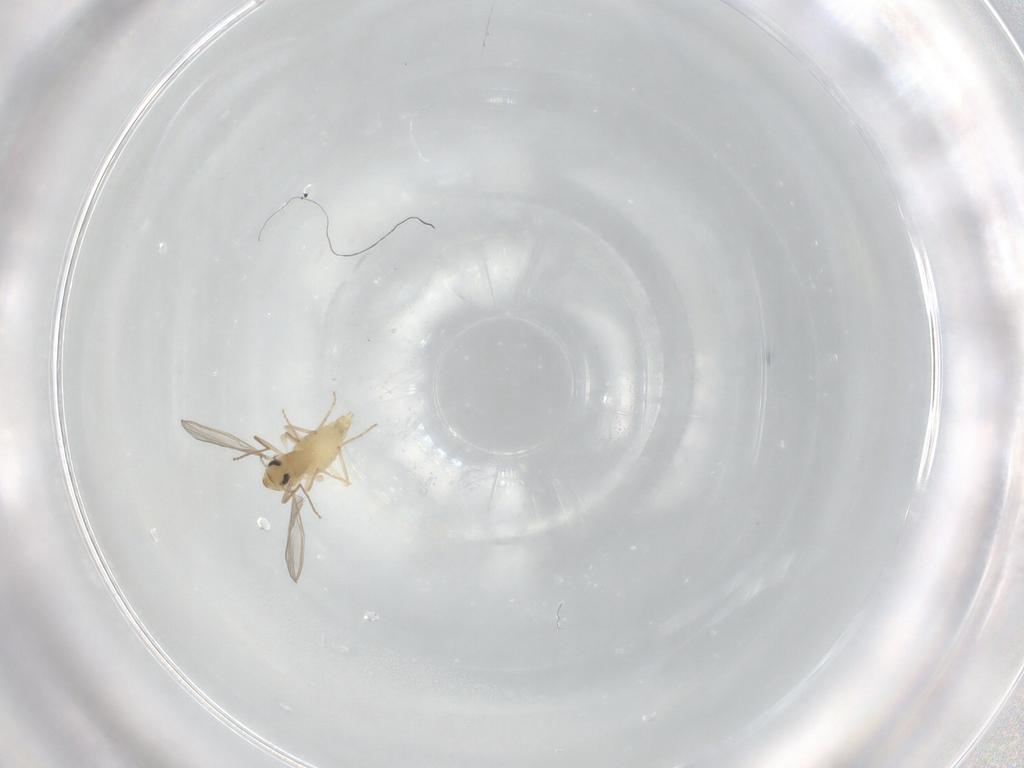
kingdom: Animalia
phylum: Arthropoda
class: Insecta
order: Diptera
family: Chironomidae
